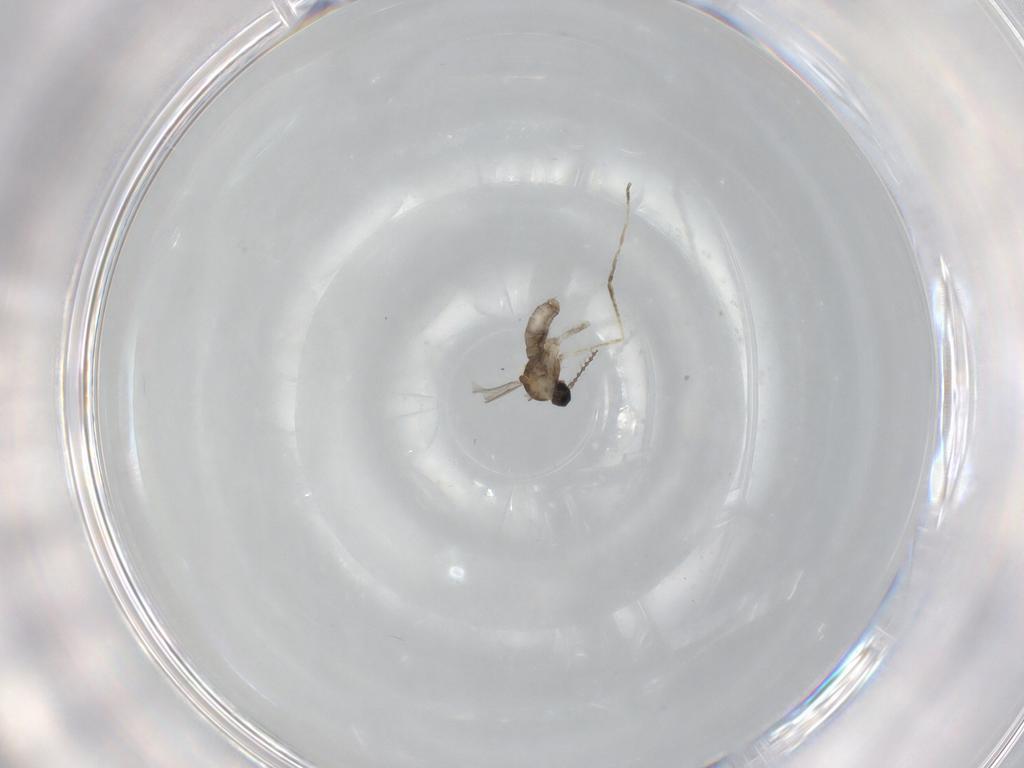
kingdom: Animalia
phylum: Arthropoda
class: Insecta
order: Diptera
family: Cecidomyiidae
